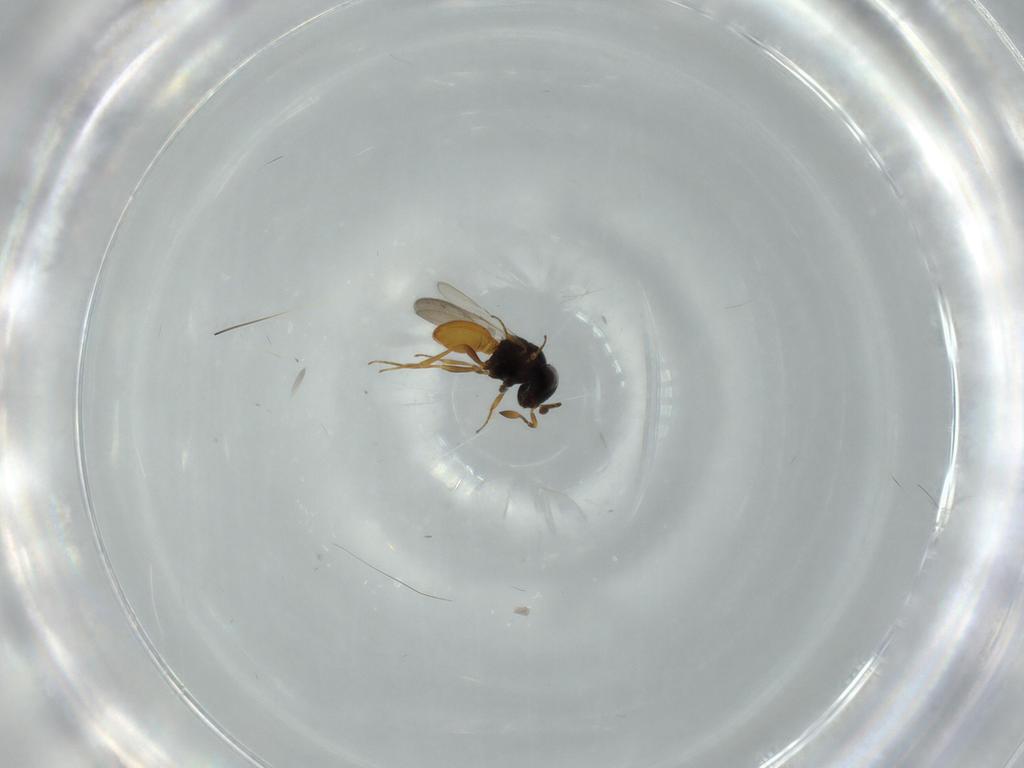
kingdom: Animalia
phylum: Arthropoda
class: Insecta
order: Hymenoptera
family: Scelionidae
